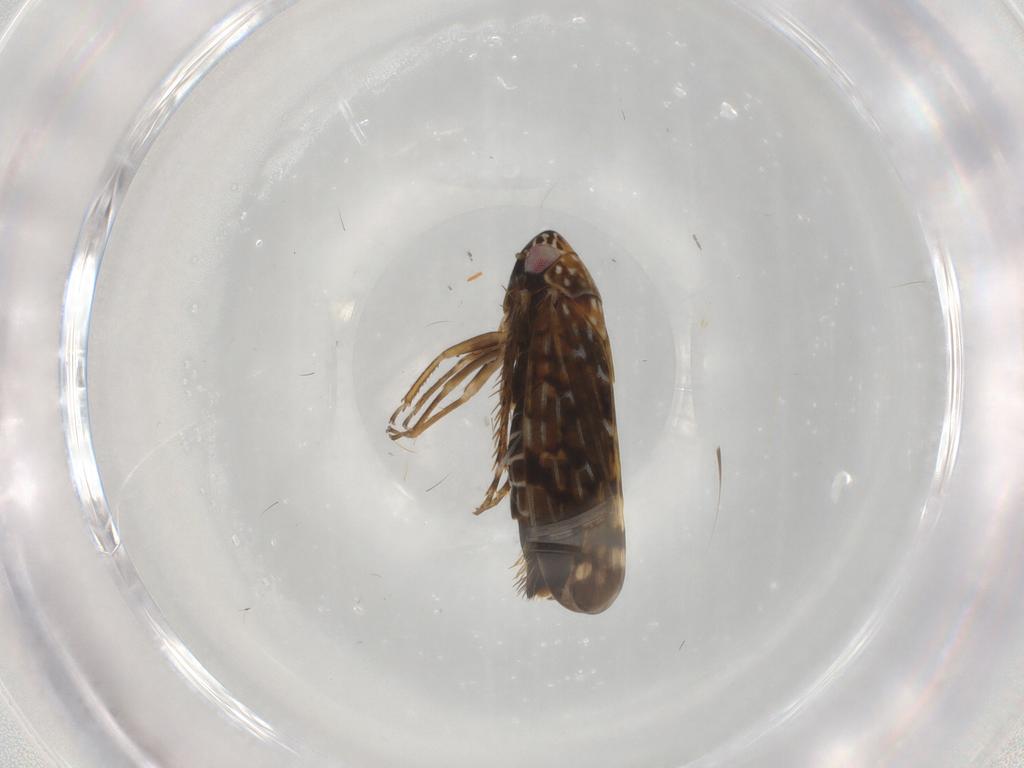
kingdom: Animalia
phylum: Arthropoda
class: Insecta
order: Hemiptera
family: Cicadellidae
